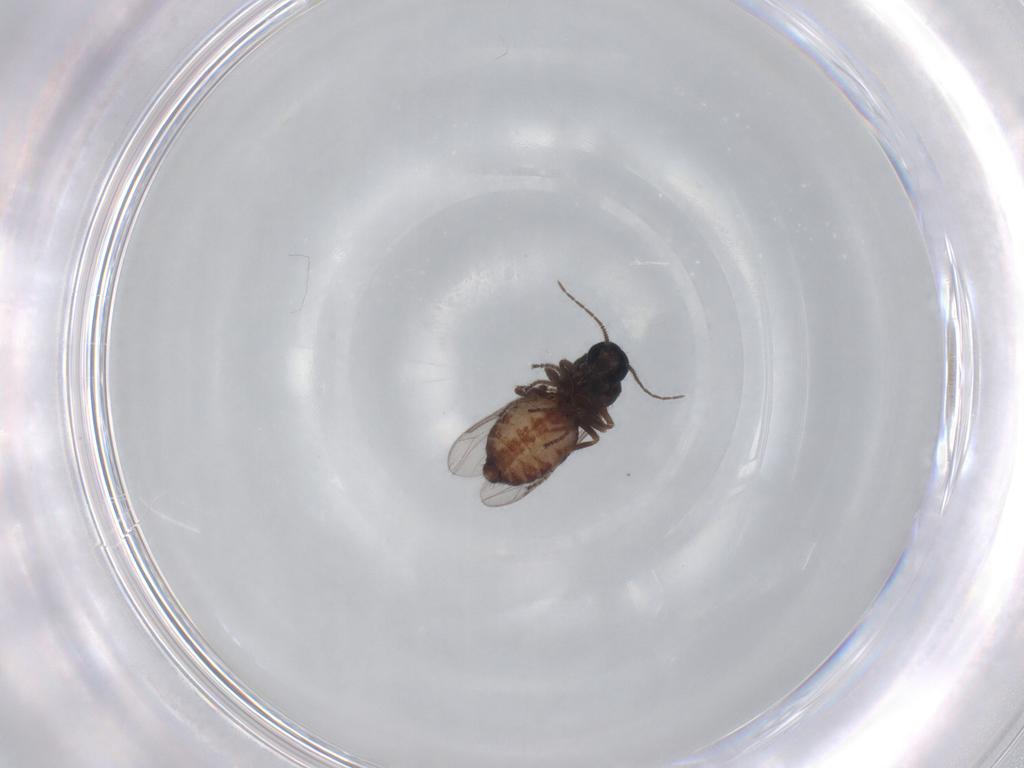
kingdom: Animalia
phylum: Arthropoda
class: Insecta
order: Diptera
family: Ceratopogonidae
